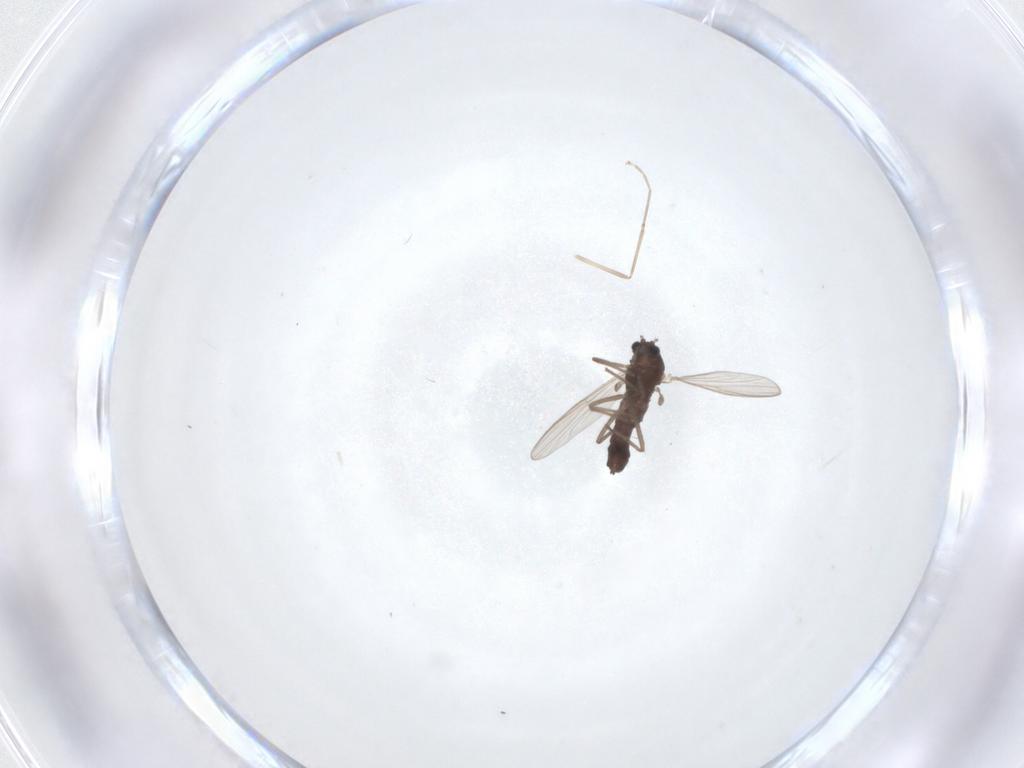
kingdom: Animalia
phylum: Arthropoda
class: Insecta
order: Diptera
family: Chironomidae
